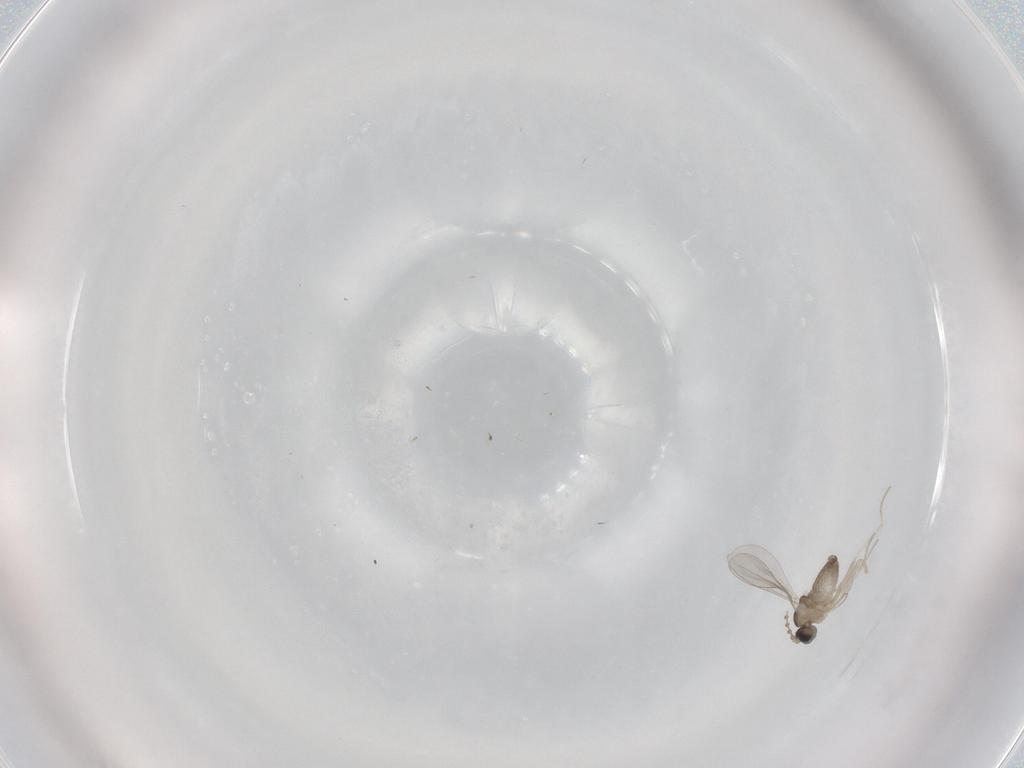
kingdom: Animalia
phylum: Arthropoda
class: Insecta
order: Diptera
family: Cecidomyiidae
